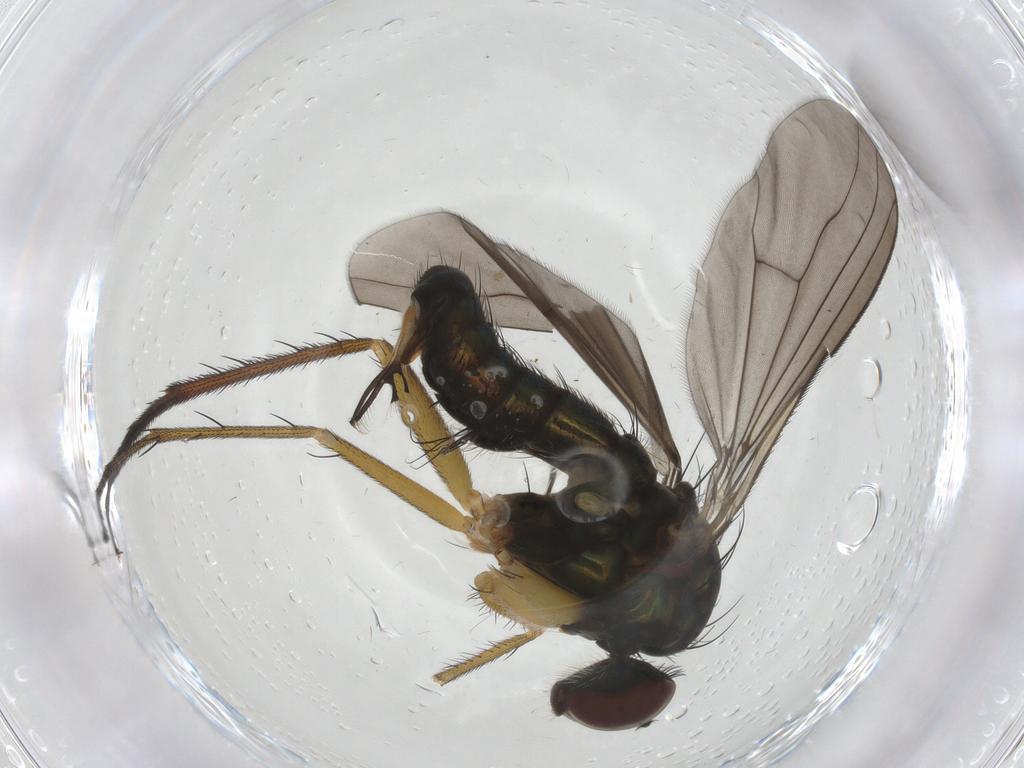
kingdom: Animalia
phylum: Arthropoda
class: Insecta
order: Diptera
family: Dolichopodidae
